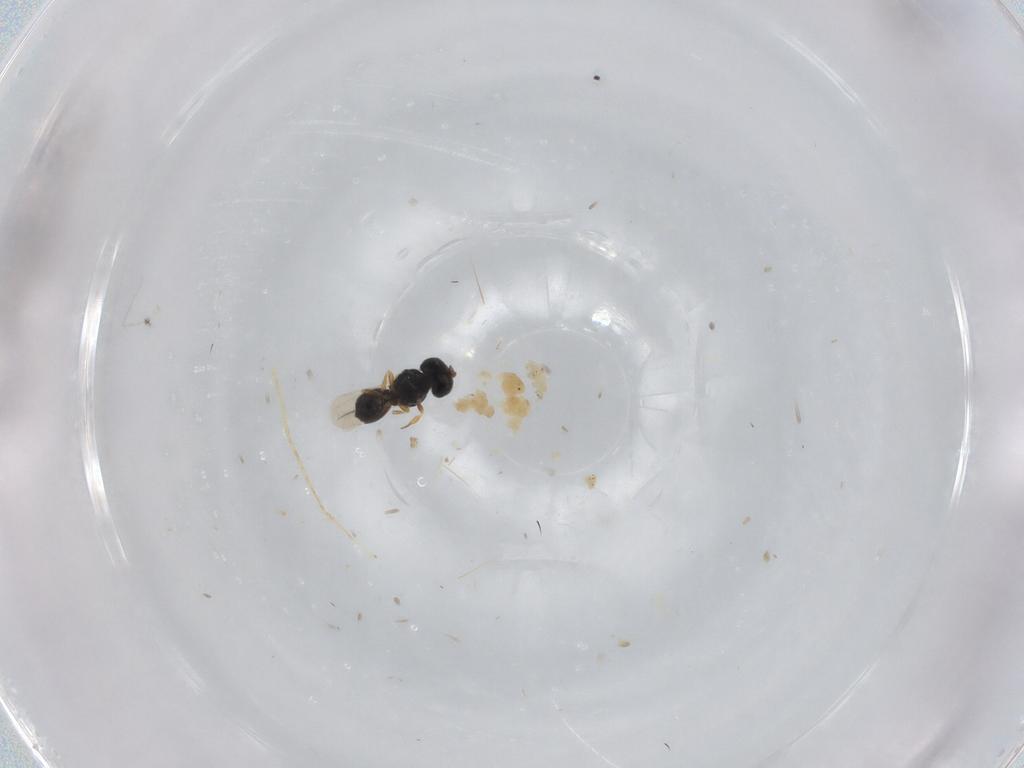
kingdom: Animalia
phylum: Arthropoda
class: Insecta
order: Hymenoptera
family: Scelionidae
